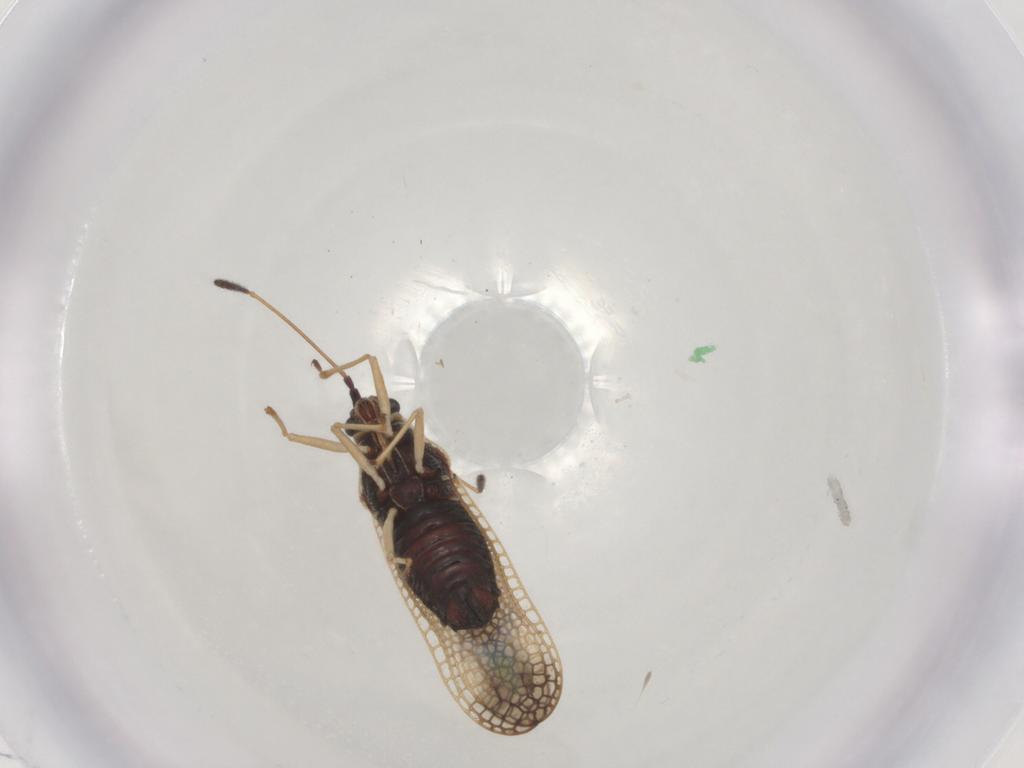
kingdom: Animalia
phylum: Arthropoda
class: Insecta
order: Hemiptera
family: Tingidae
